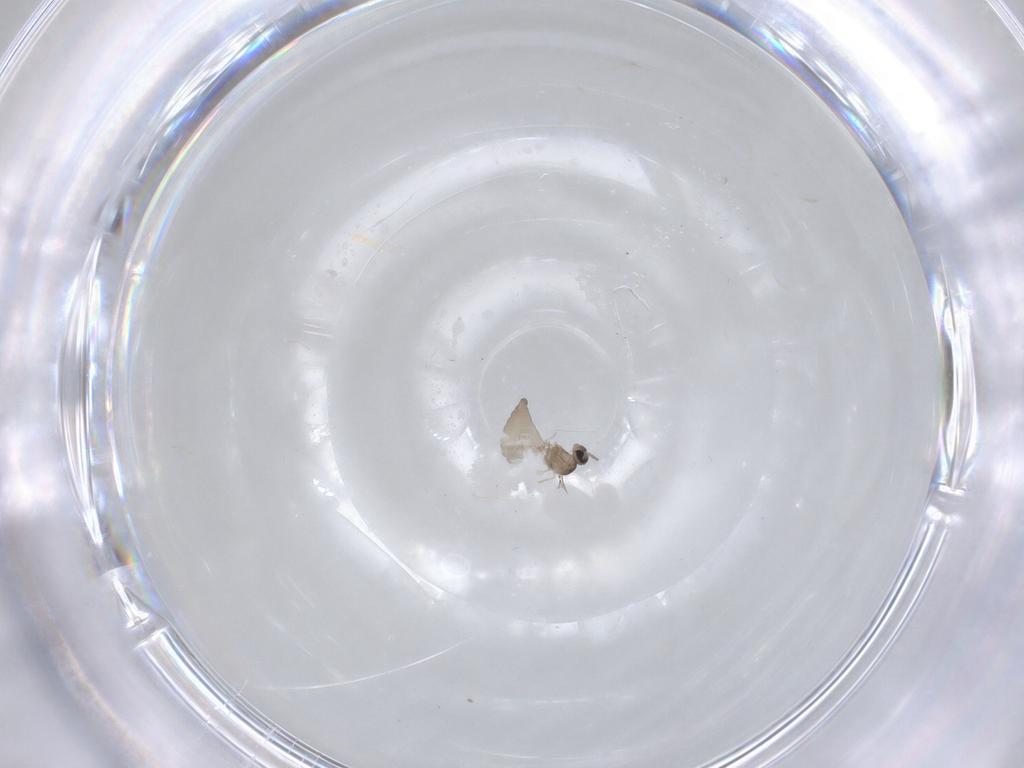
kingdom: Animalia
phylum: Arthropoda
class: Insecta
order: Diptera
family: Cecidomyiidae
